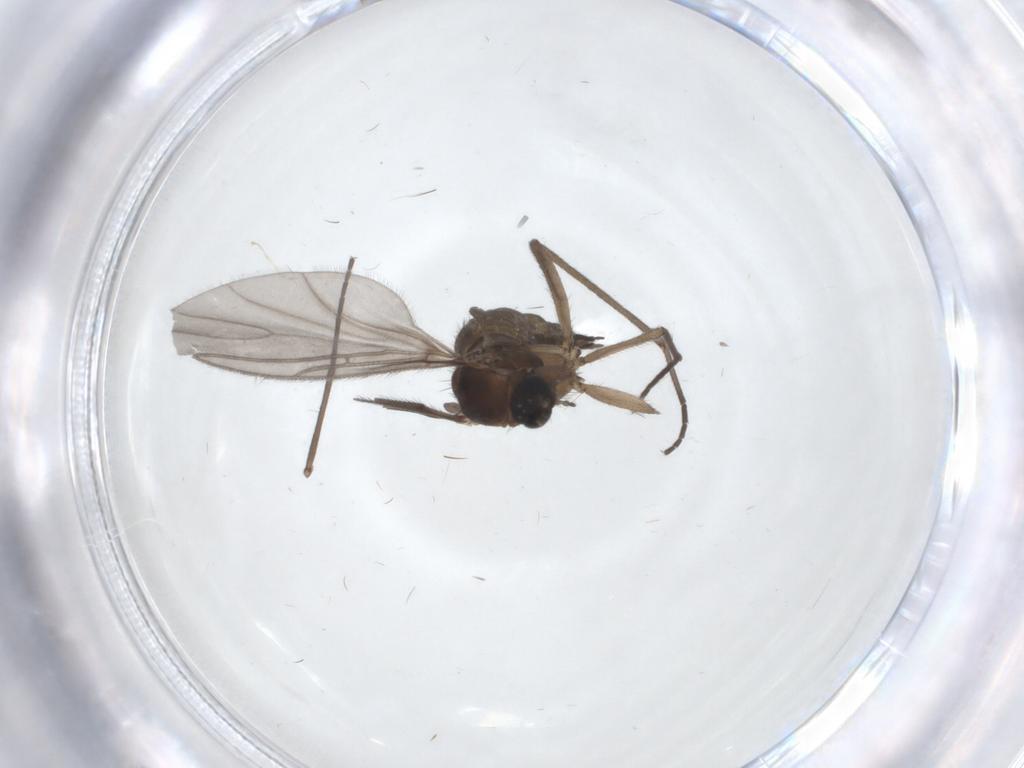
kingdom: Animalia
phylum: Arthropoda
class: Insecta
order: Diptera
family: Sciaridae
